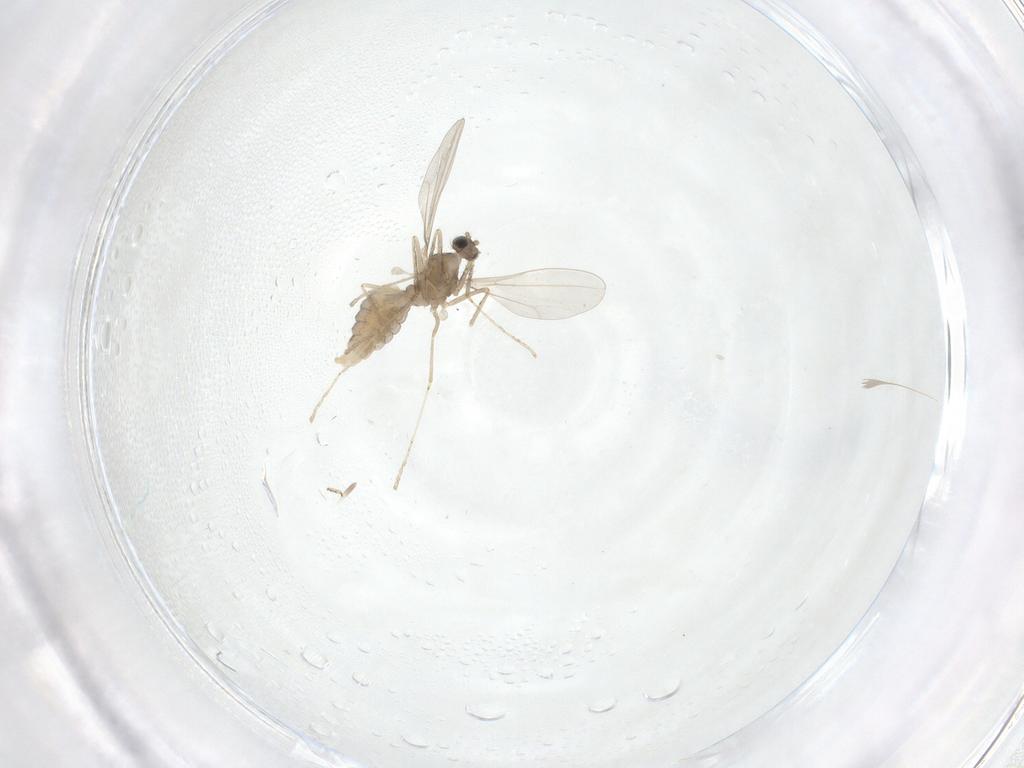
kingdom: Animalia
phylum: Arthropoda
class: Insecta
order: Diptera
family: Cecidomyiidae
